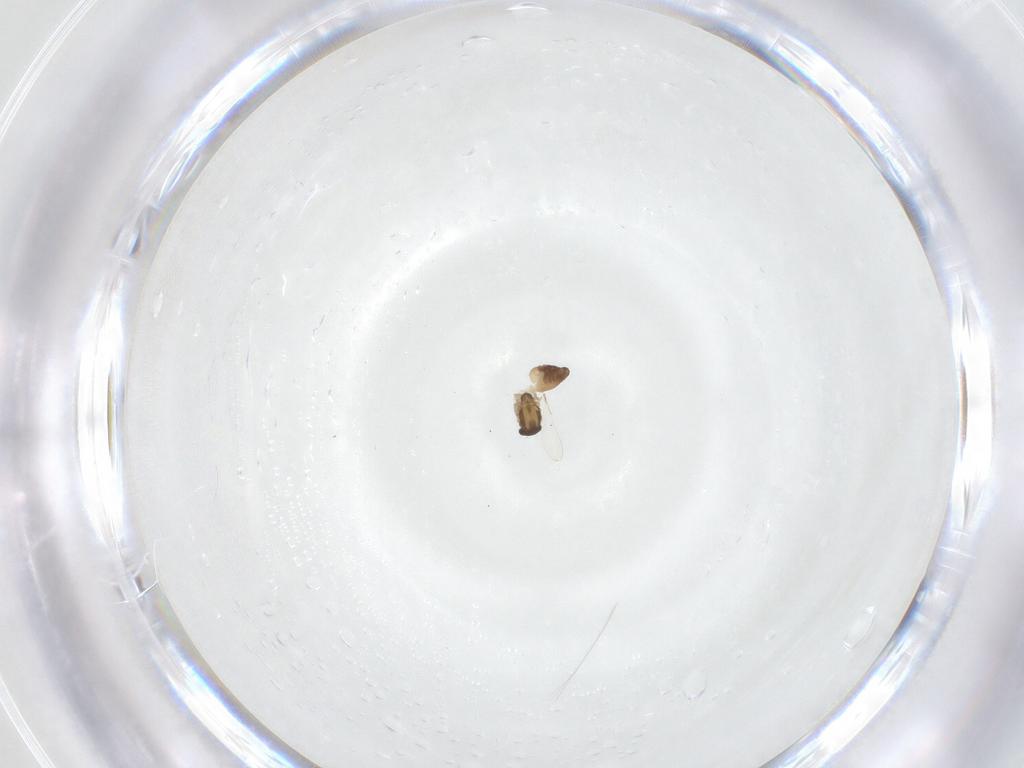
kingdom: Animalia
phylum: Arthropoda
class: Insecta
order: Diptera
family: Chironomidae
